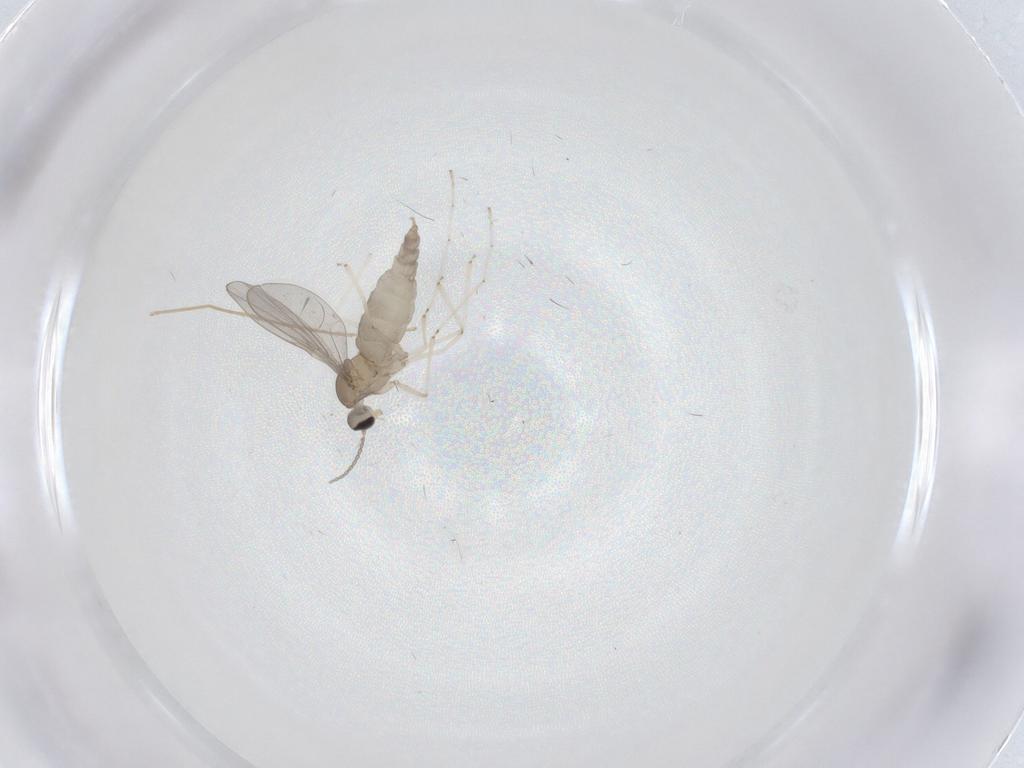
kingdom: Animalia
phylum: Arthropoda
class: Insecta
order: Diptera
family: Cecidomyiidae
